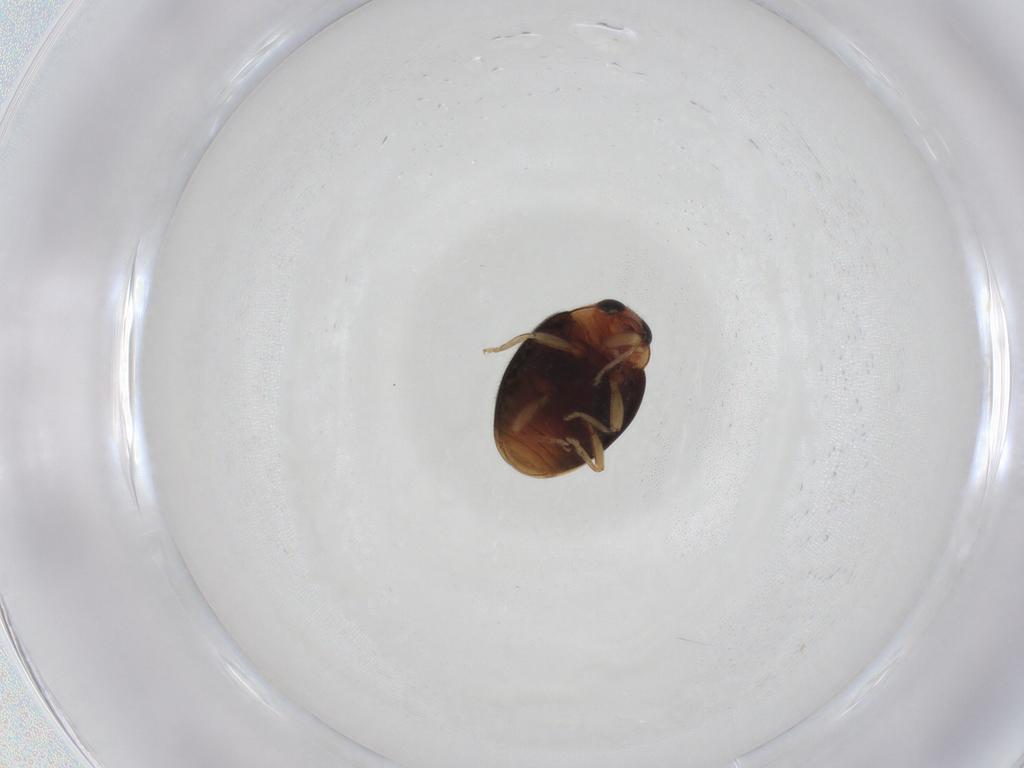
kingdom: Animalia
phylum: Arthropoda
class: Insecta
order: Coleoptera
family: Coccinellidae
